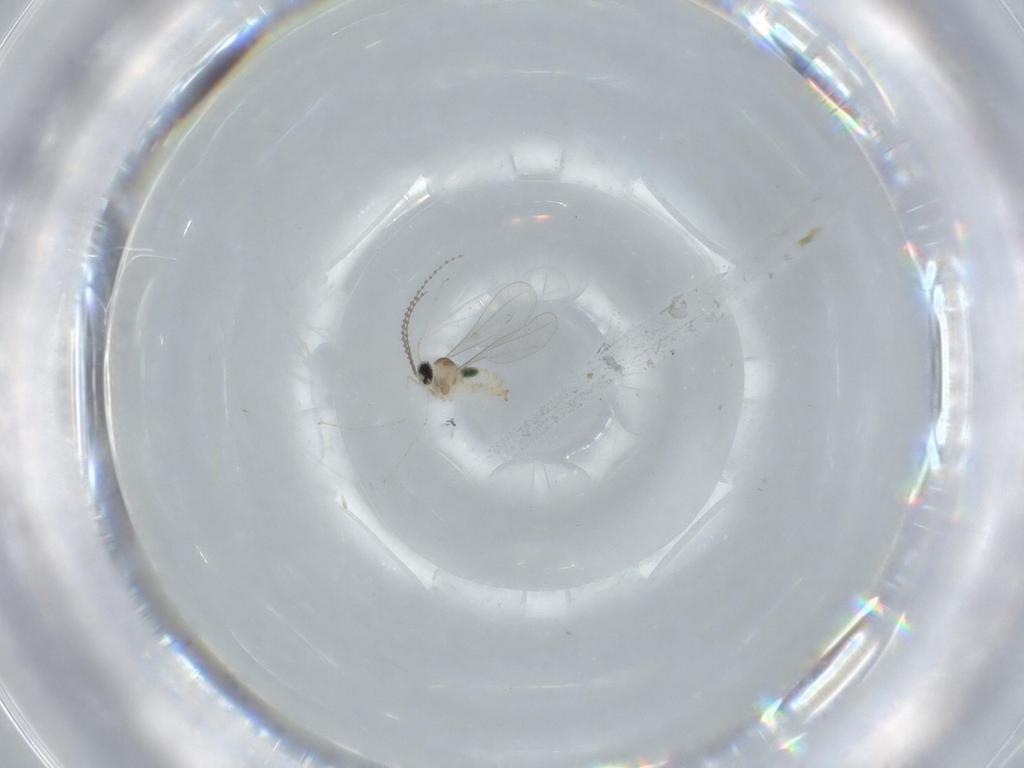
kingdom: Animalia
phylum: Arthropoda
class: Insecta
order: Diptera
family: Cecidomyiidae
